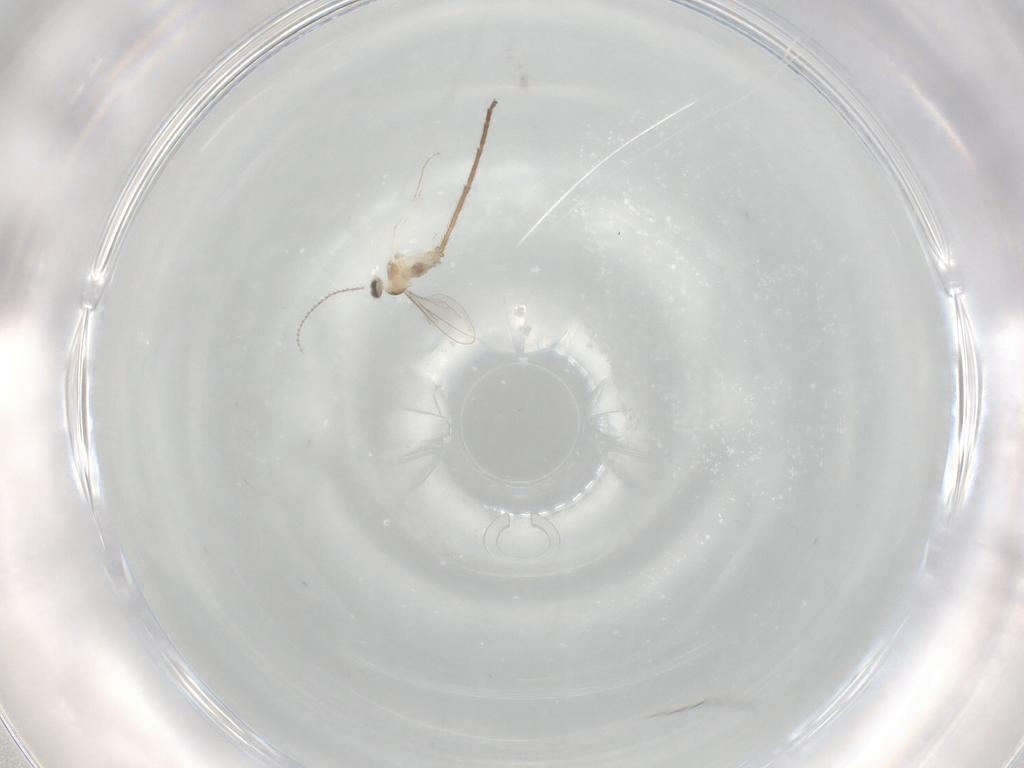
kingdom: Animalia
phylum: Arthropoda
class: Insecta
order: Diptera
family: Cecidomyiidae
